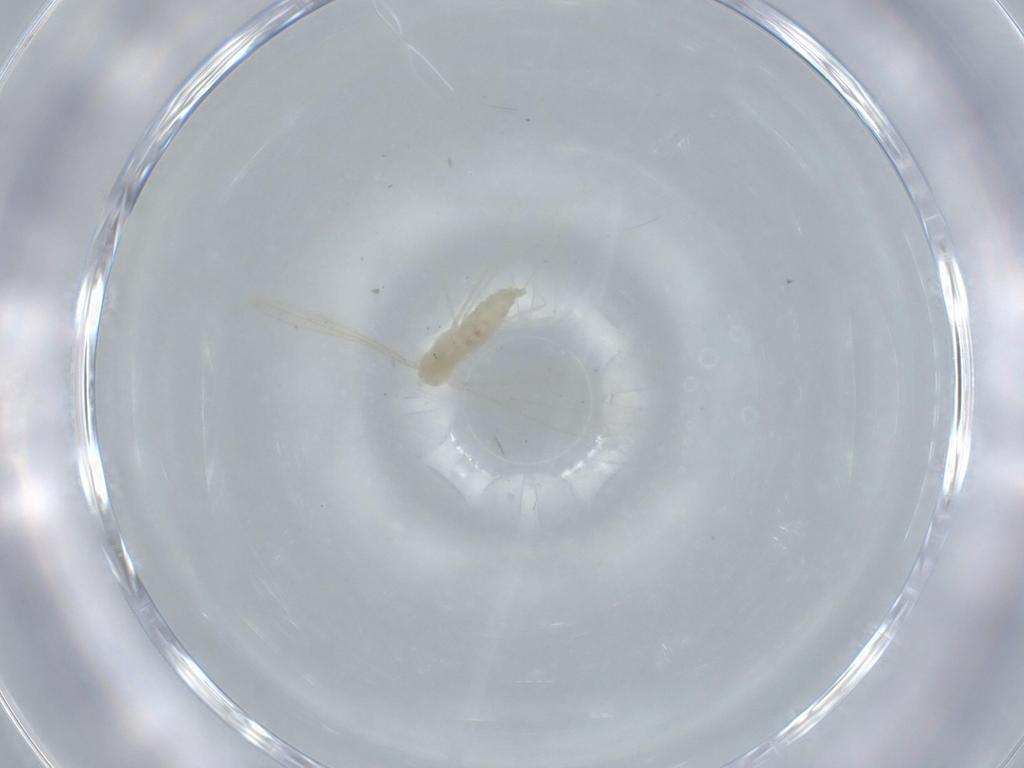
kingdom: Animalia
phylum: Arthropoda
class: Insecta
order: Diptera
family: Cecidomyiidae
